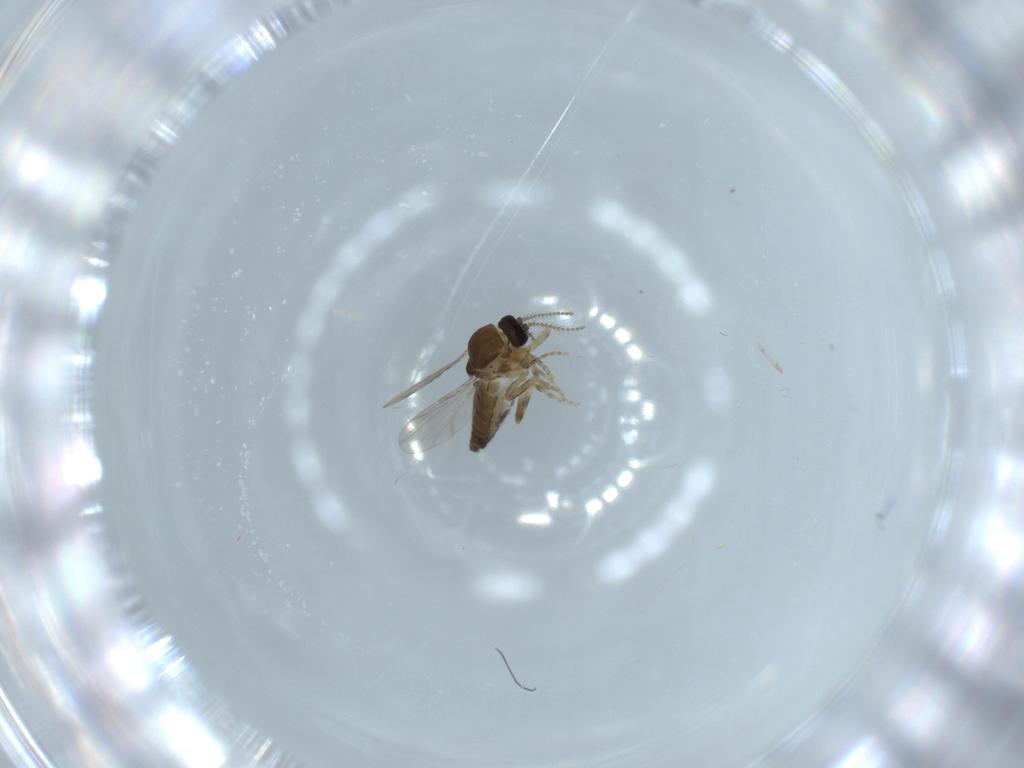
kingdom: Animalia
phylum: Arthropoda
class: Insecta
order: Diptera
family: Ceratopogonidae
